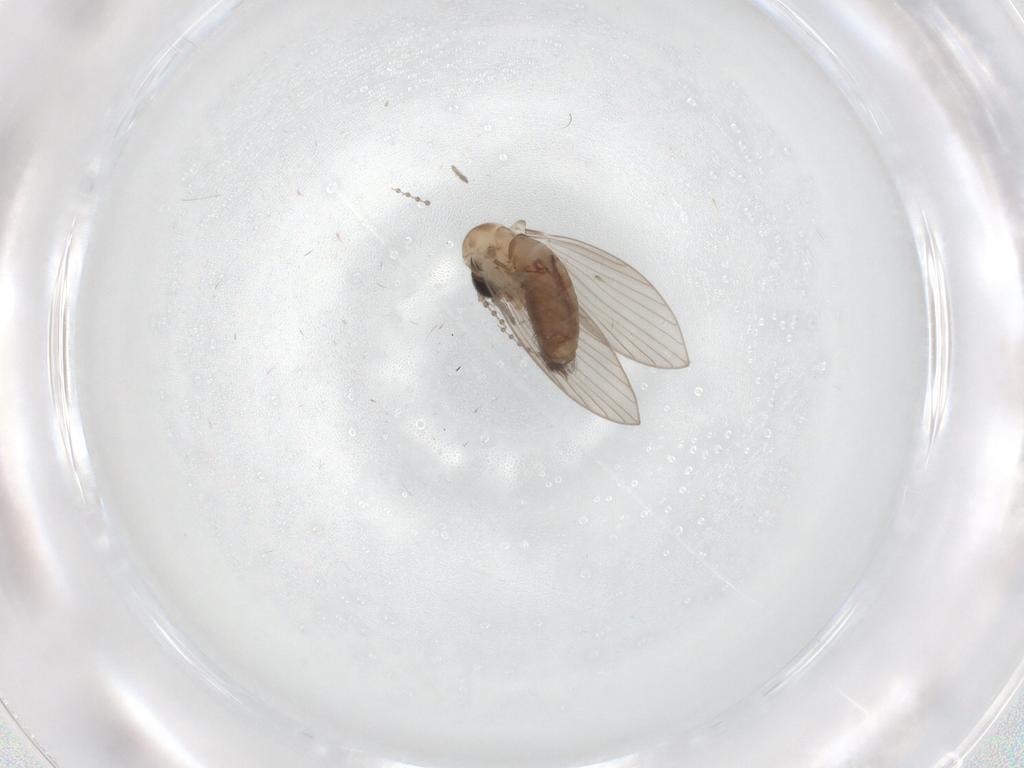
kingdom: Animalia
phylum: Arthropoda
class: Insecta
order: Diptera
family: Psychodidae
